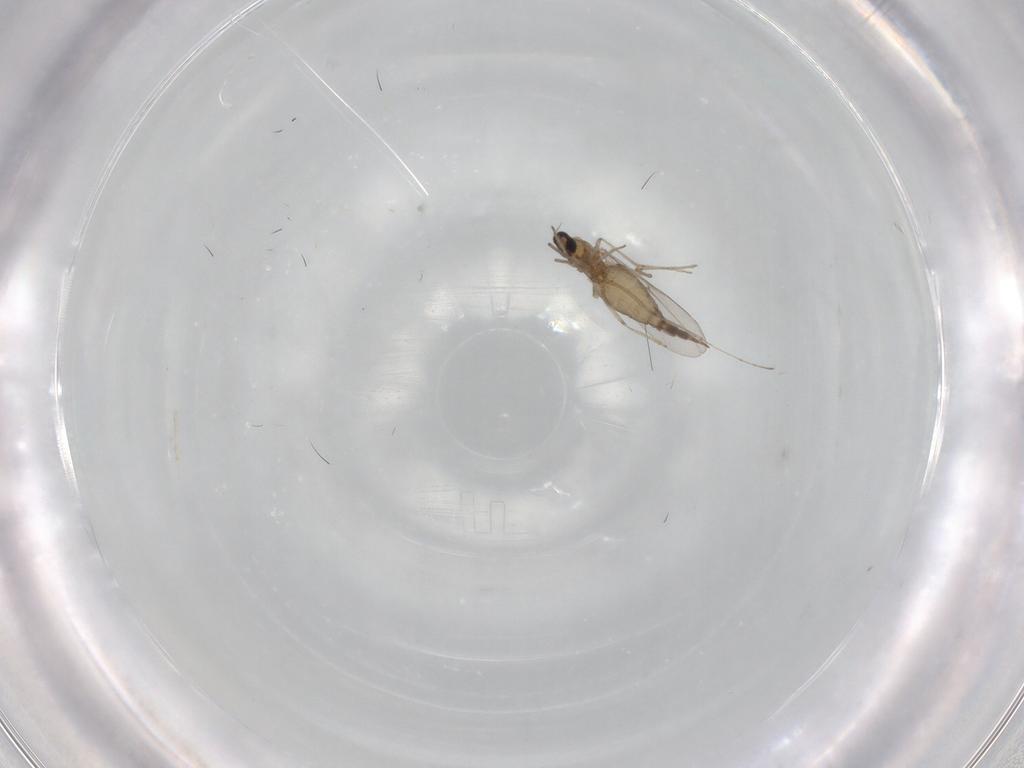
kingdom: Animalia
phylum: Arthropoda
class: Insecta
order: Diptera
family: Cecidomyiidae
